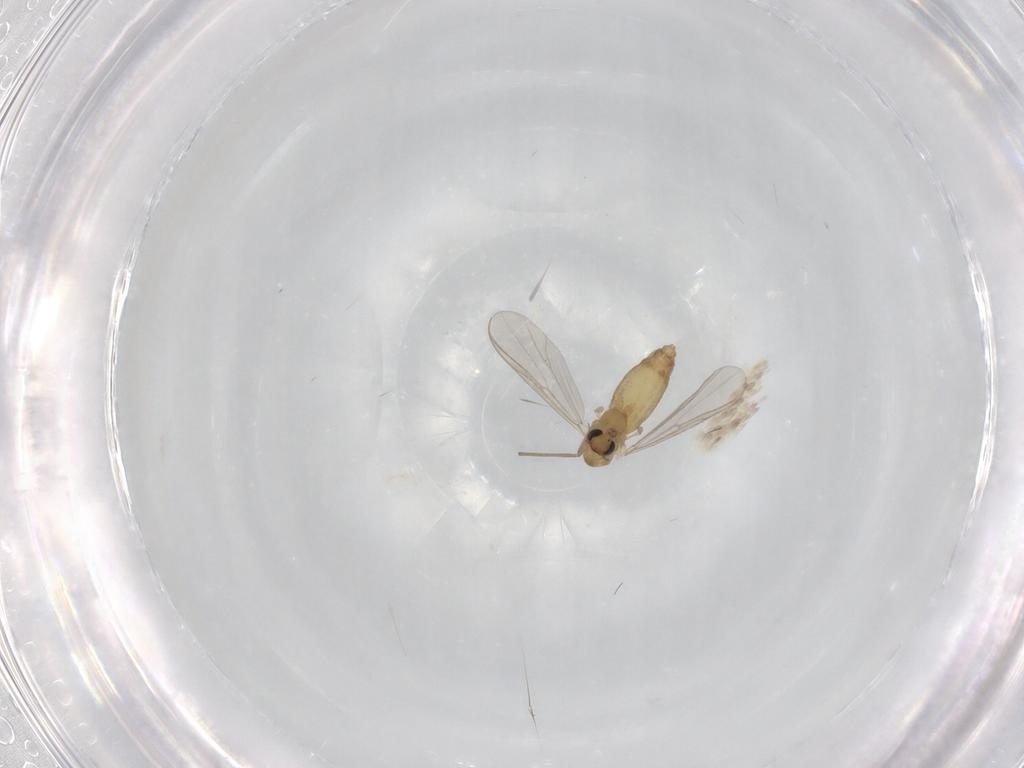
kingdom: Animalia
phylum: Arthropoda
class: Insecta
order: Diptera
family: Chironomidae
